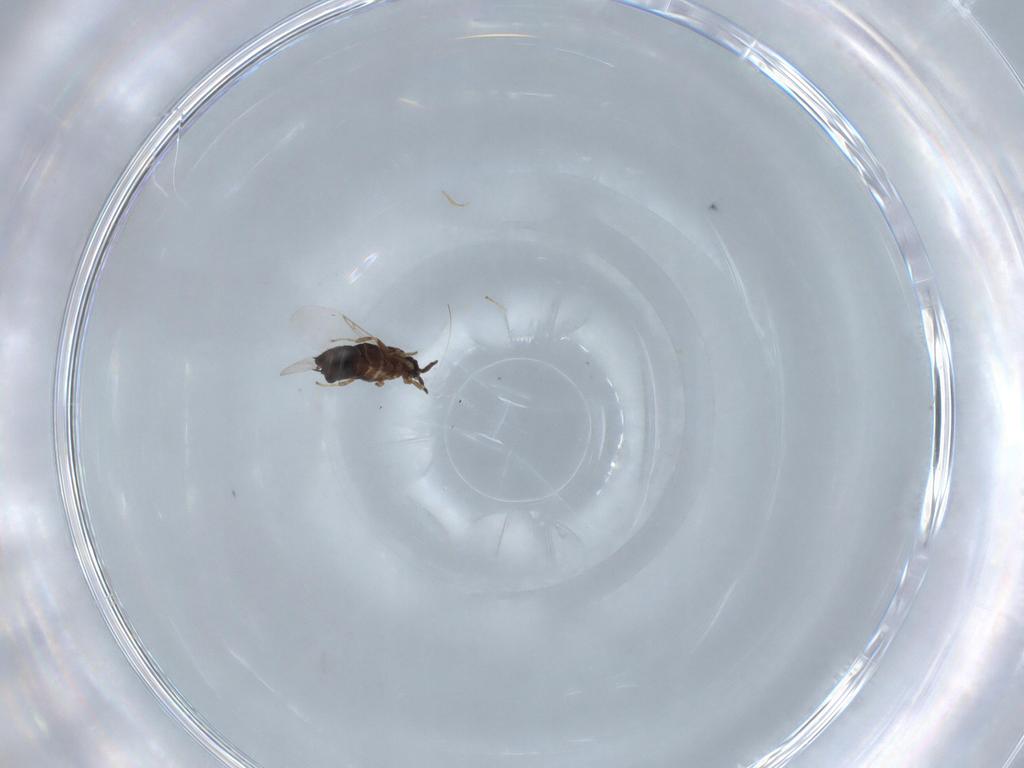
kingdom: Animalia
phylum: Arthropoda
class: Insecta
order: Diptera
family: Scatopsidae
